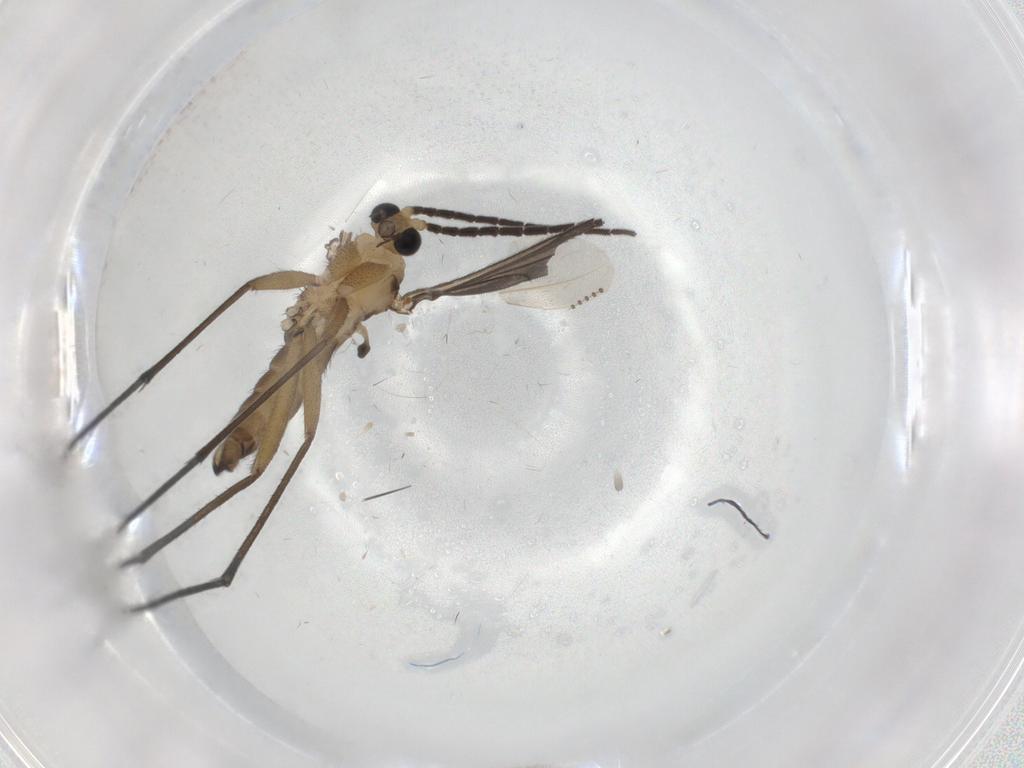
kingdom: Animalia
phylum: Arthropoda
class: Insecta
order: Diptera
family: Sciaridae
